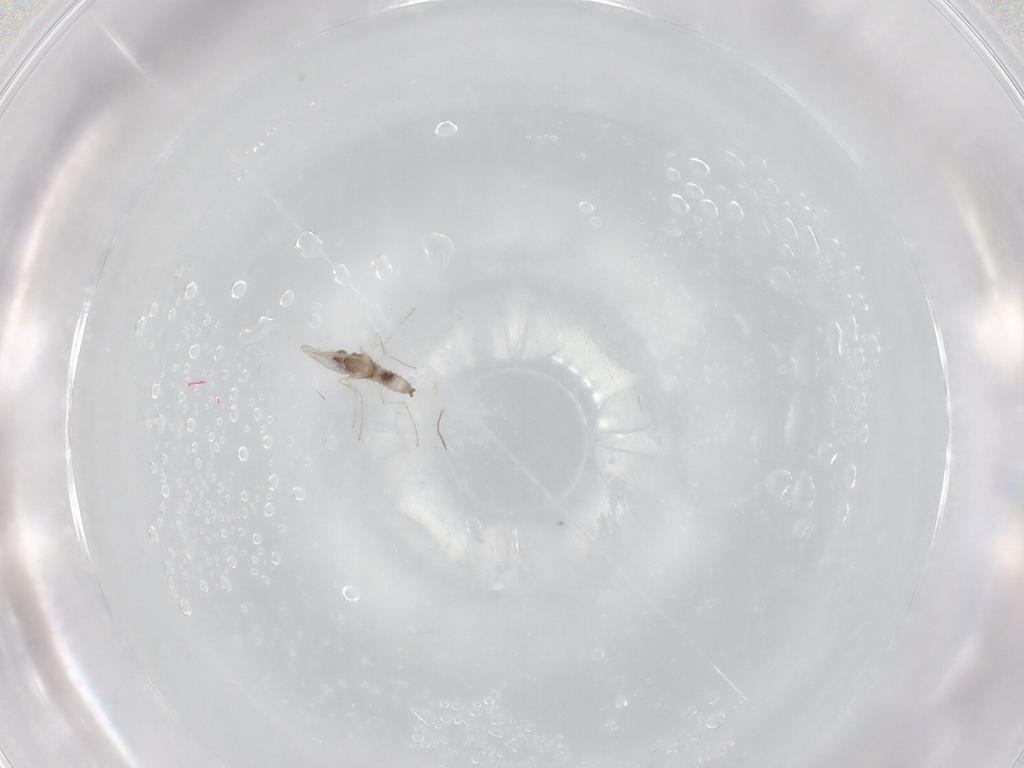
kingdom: Animalia
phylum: Arthropoda
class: Insecta
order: Diptera
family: Cecidomyiidae
